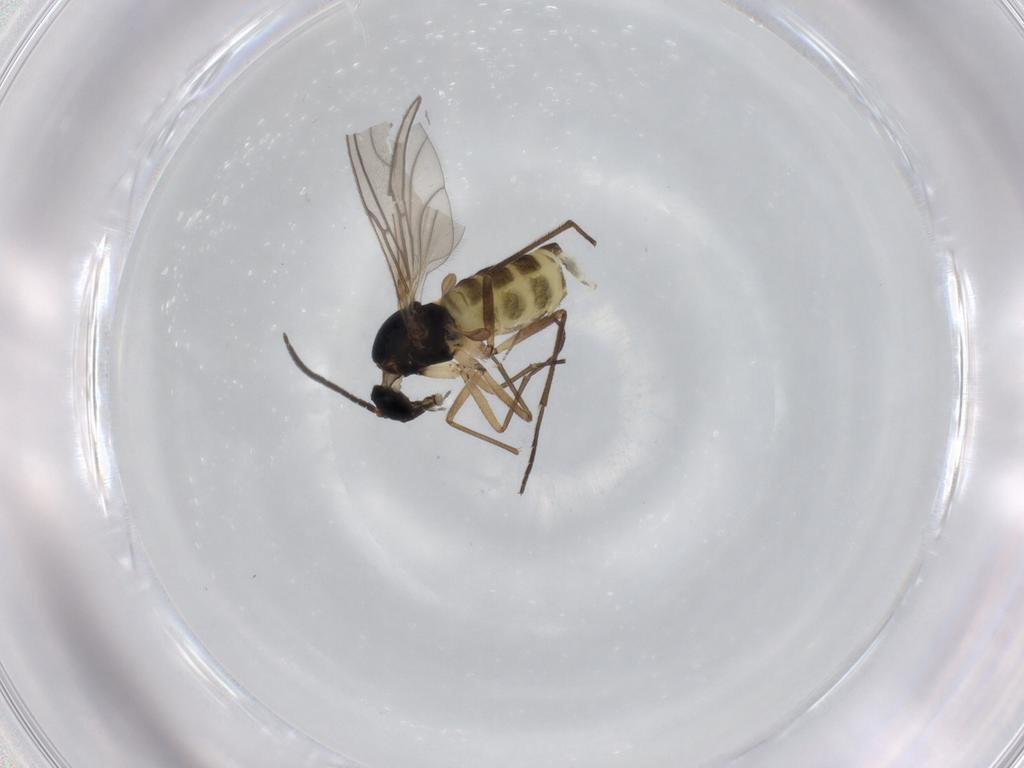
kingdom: Animalia
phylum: Arthropoda
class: Insecta
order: Diptera
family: Sciaridae
